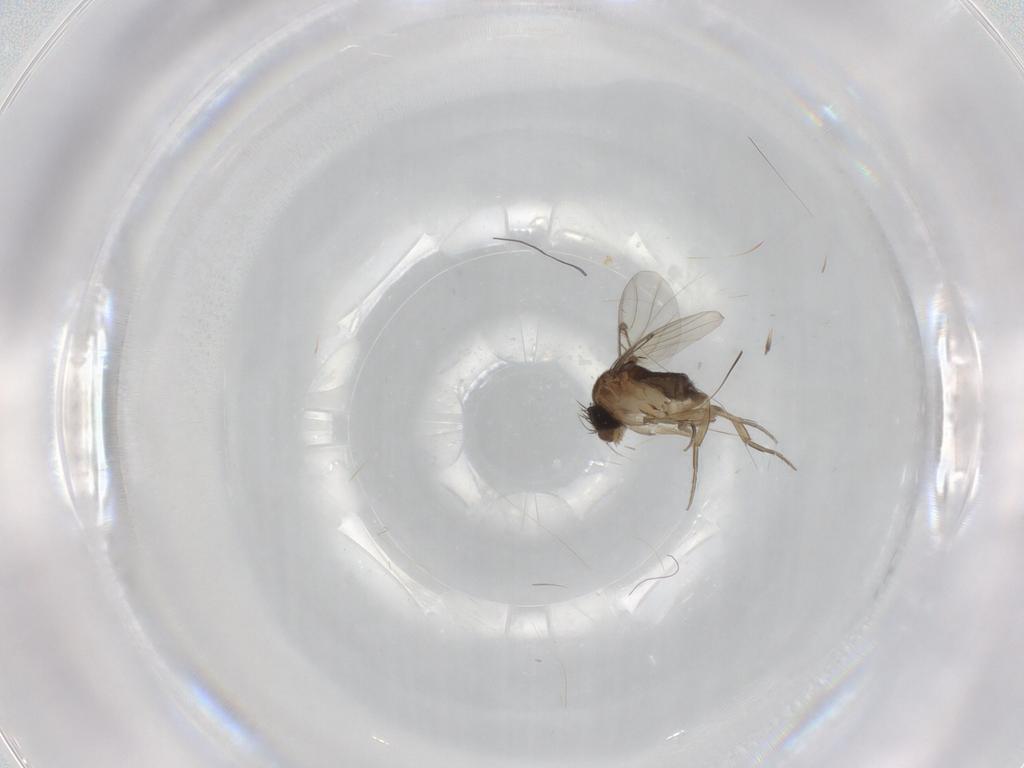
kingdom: Animalia
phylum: Arthropoda
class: Insecta
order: Diptera
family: Phoridae
